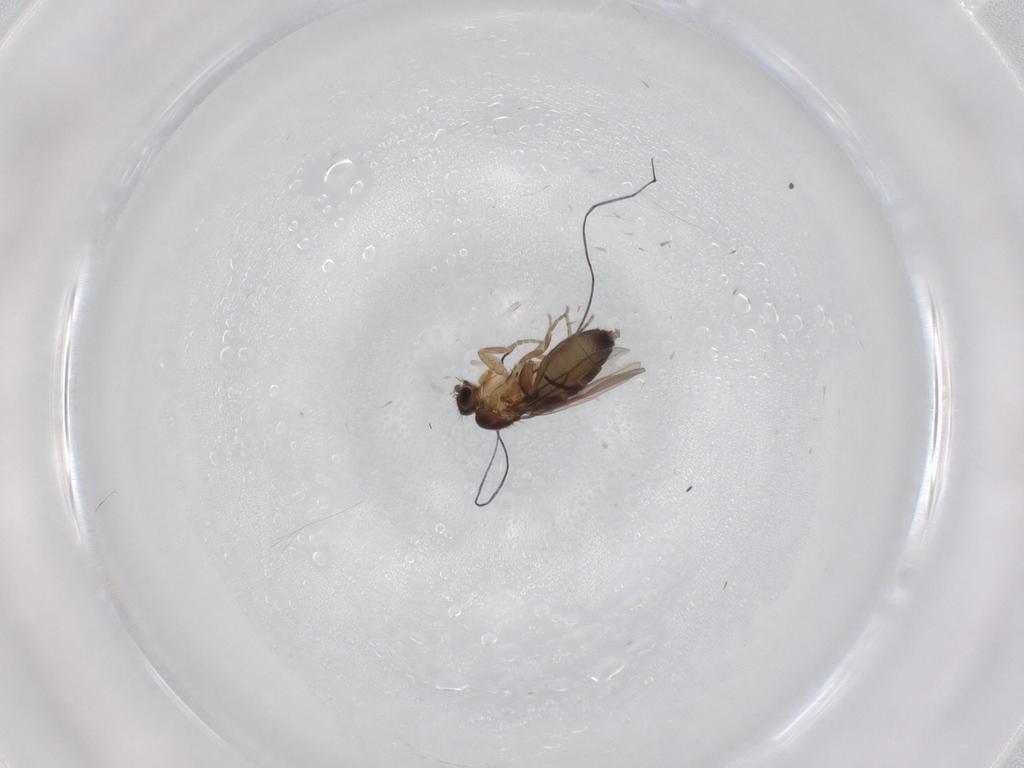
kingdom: Animalia
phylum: Arthropoda
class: Insecta
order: Diptera
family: Phoridae
